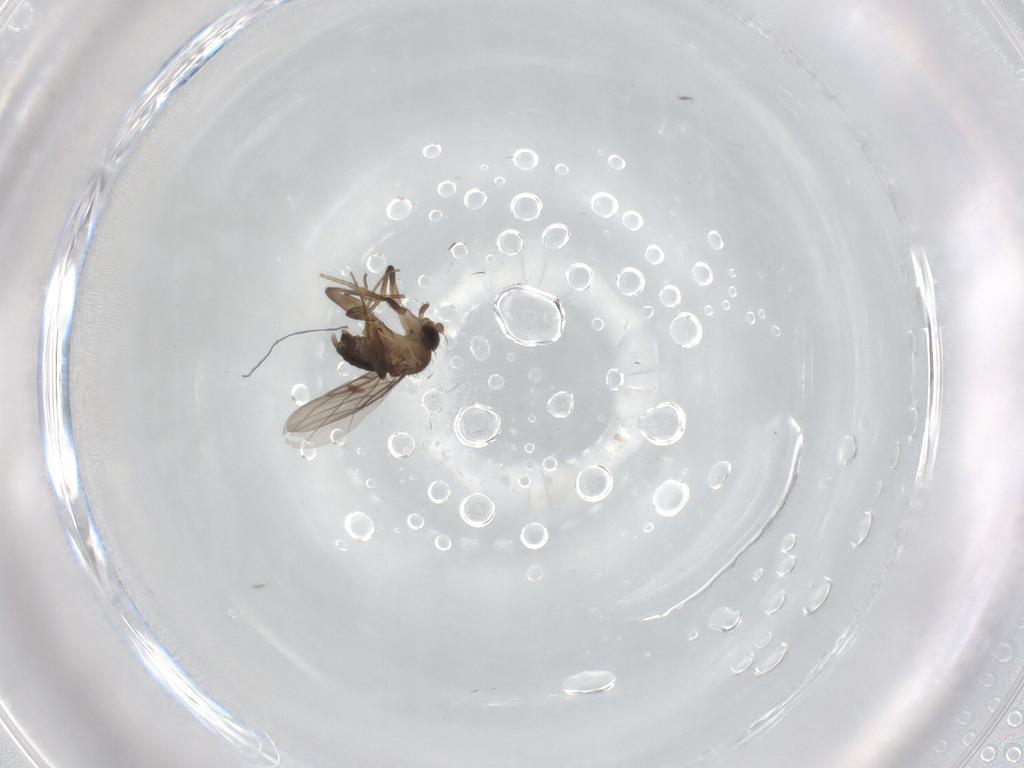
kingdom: Animalia
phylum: Arthropoda
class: Insecta
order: Diptera
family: Phoridae
